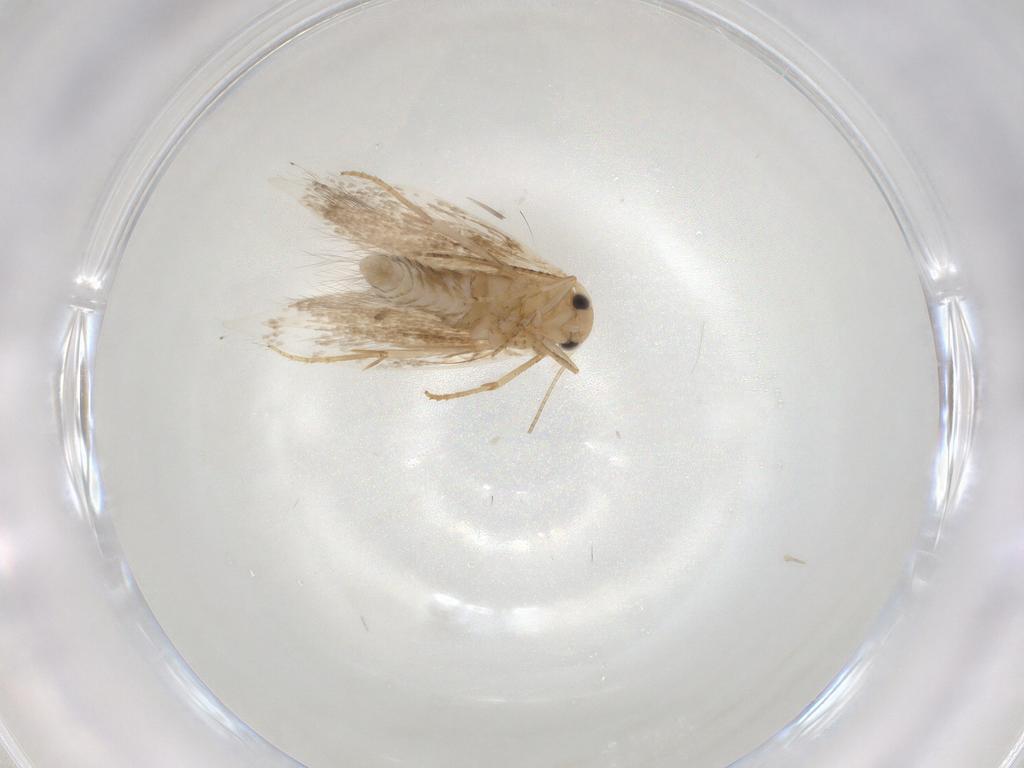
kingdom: Animalia
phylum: Arthropoda
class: Insecta
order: Lepidoptera
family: Bucculatricidae
